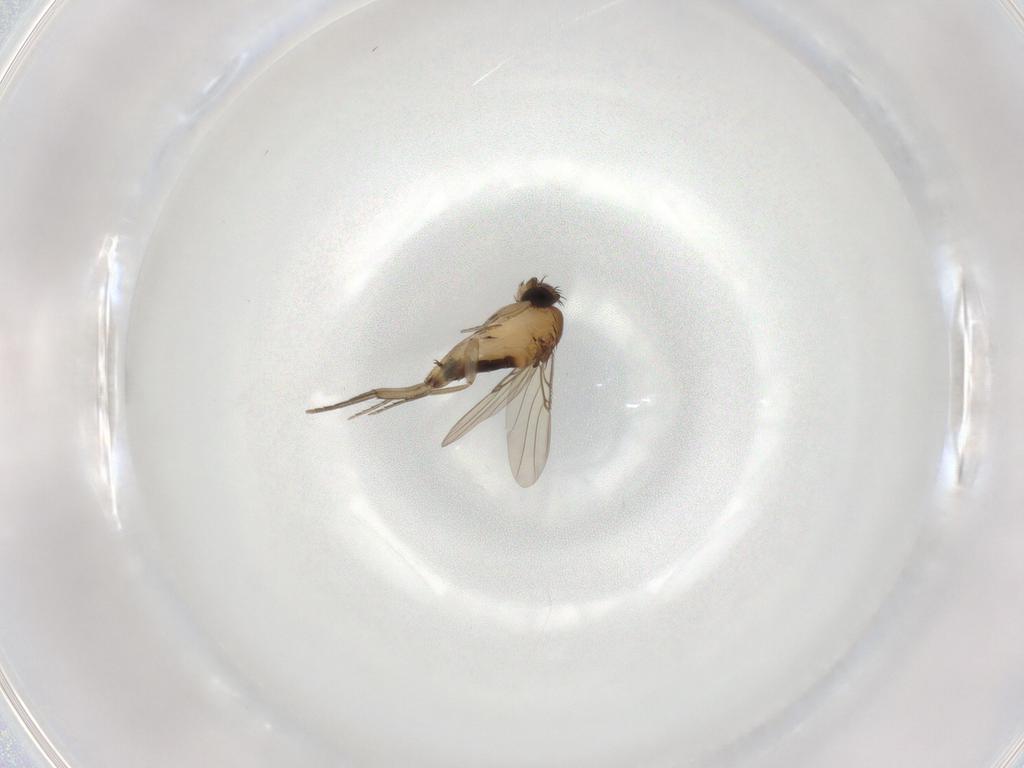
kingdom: Animalia
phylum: Arthropoda
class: Insecta
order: Diptera
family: Phoridae
